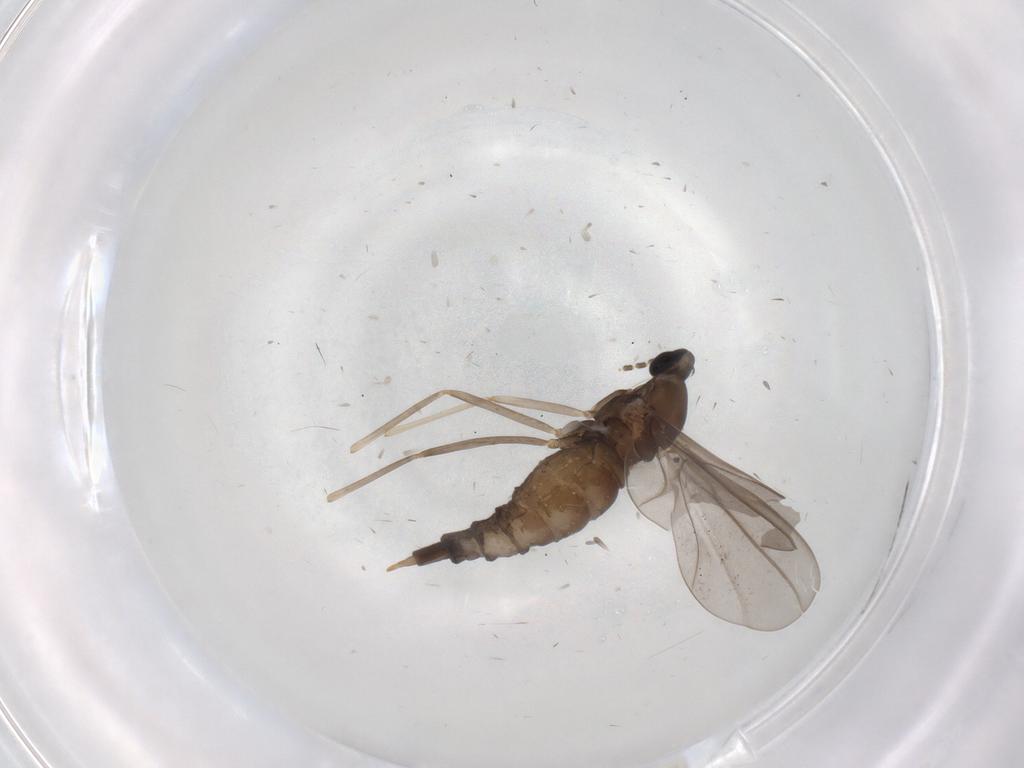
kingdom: Animalia
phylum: Arthropoda
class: Insecta
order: Diptera
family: Cecidomyiidae
